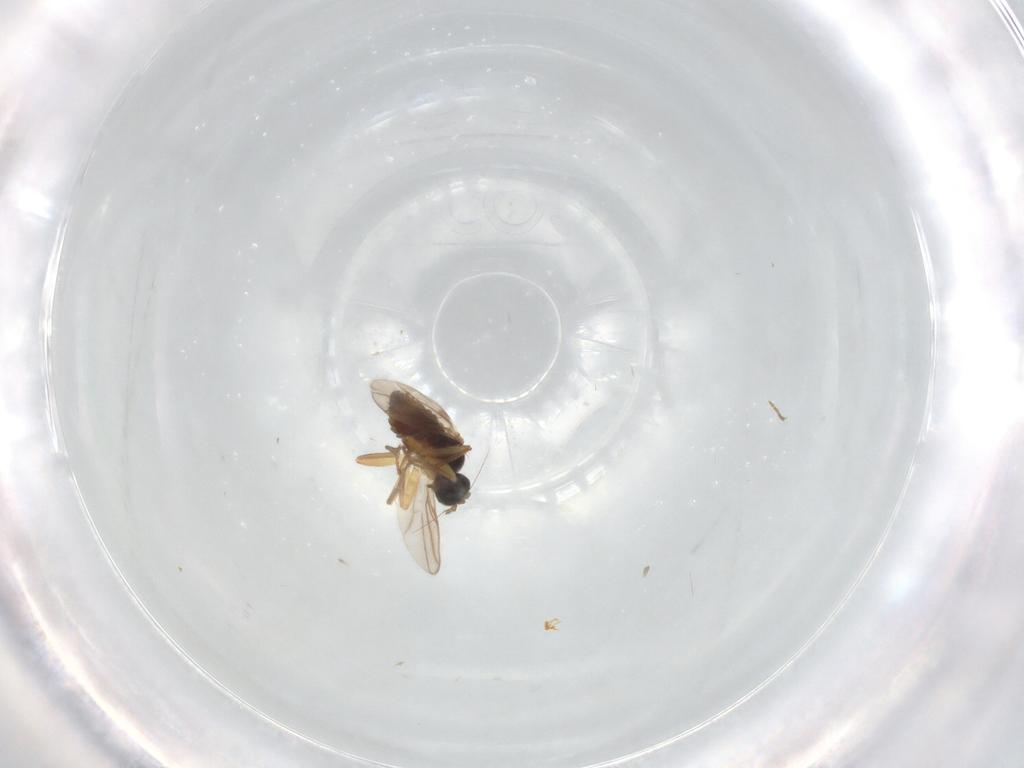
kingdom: Animalia
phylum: Arthropoda
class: Insecta
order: Diptera
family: Hybotidae
